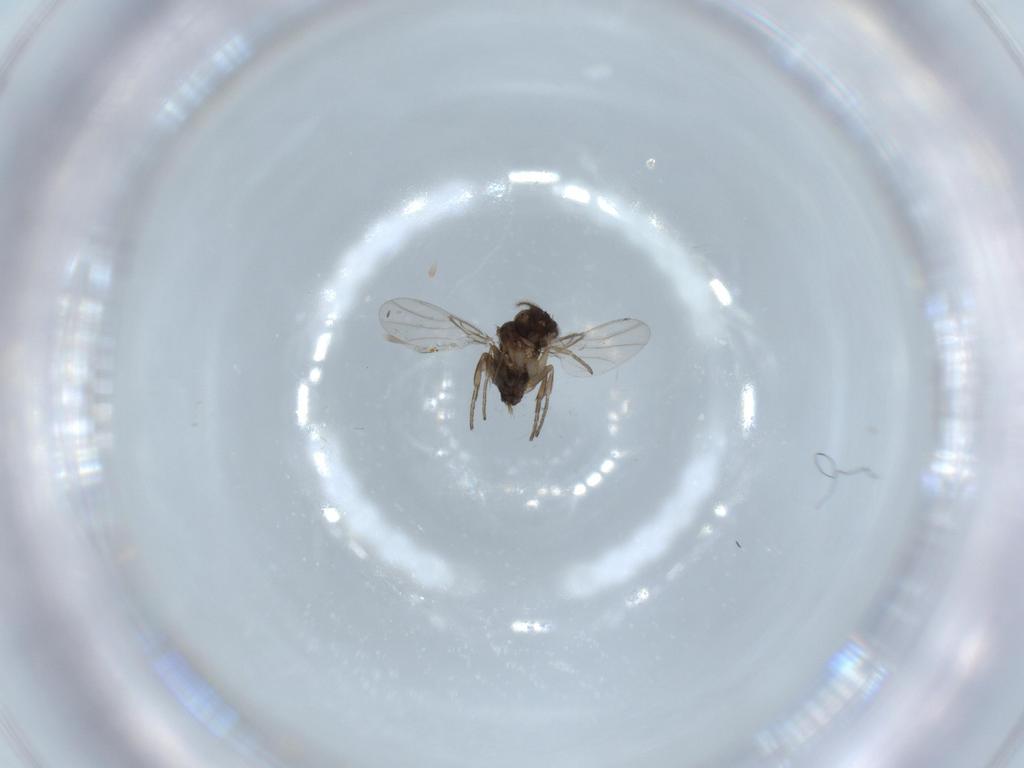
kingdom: Animalia
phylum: Arthropoda
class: Insecta
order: Diptera
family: Phoridae
